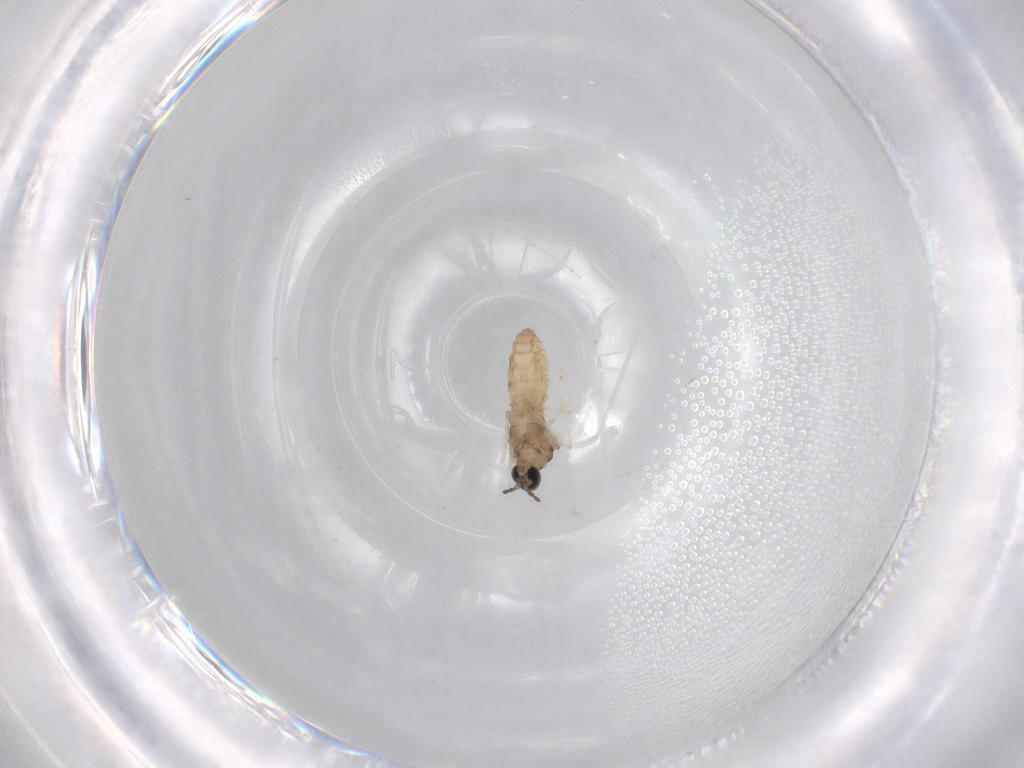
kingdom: Animalia
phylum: Arthropoda
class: Insecta
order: Diptera
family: Cecidomyiidae
